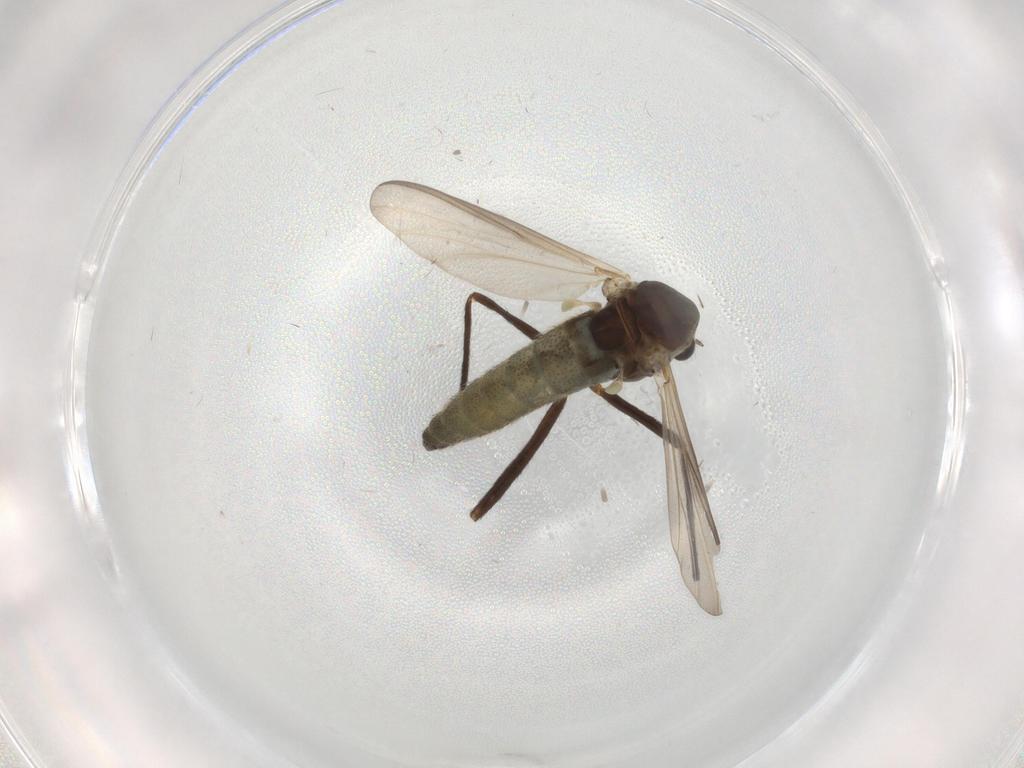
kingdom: Animalia
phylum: Arthropoda
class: Insecta
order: Diptera
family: Chironomidae
